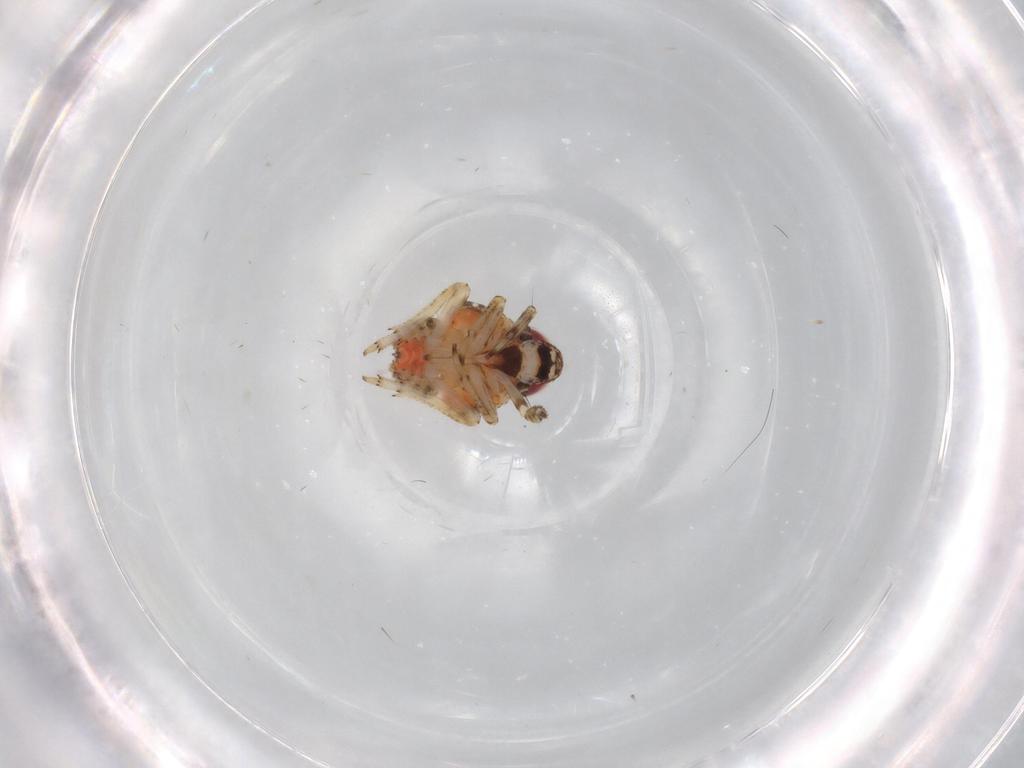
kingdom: Animalia
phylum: Arthropoda
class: Insecta
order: Hemiptera
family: Issidae
